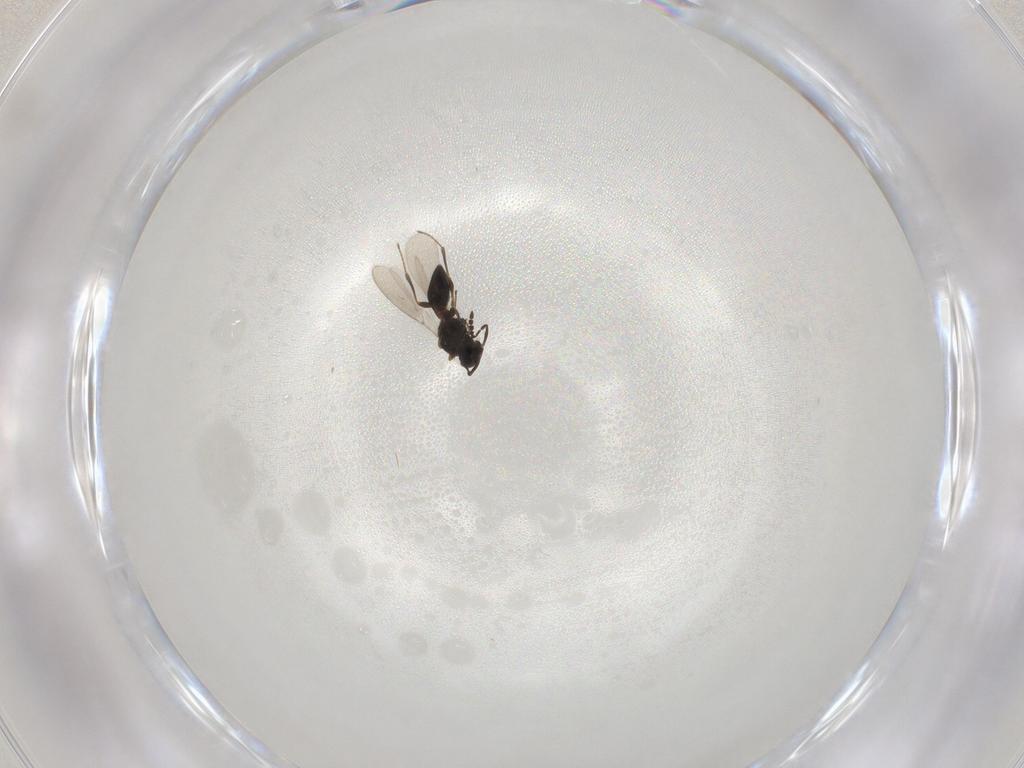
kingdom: Animalia
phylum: Arthropoda
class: Insecta
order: Hymenoptera
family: Platygastridae
